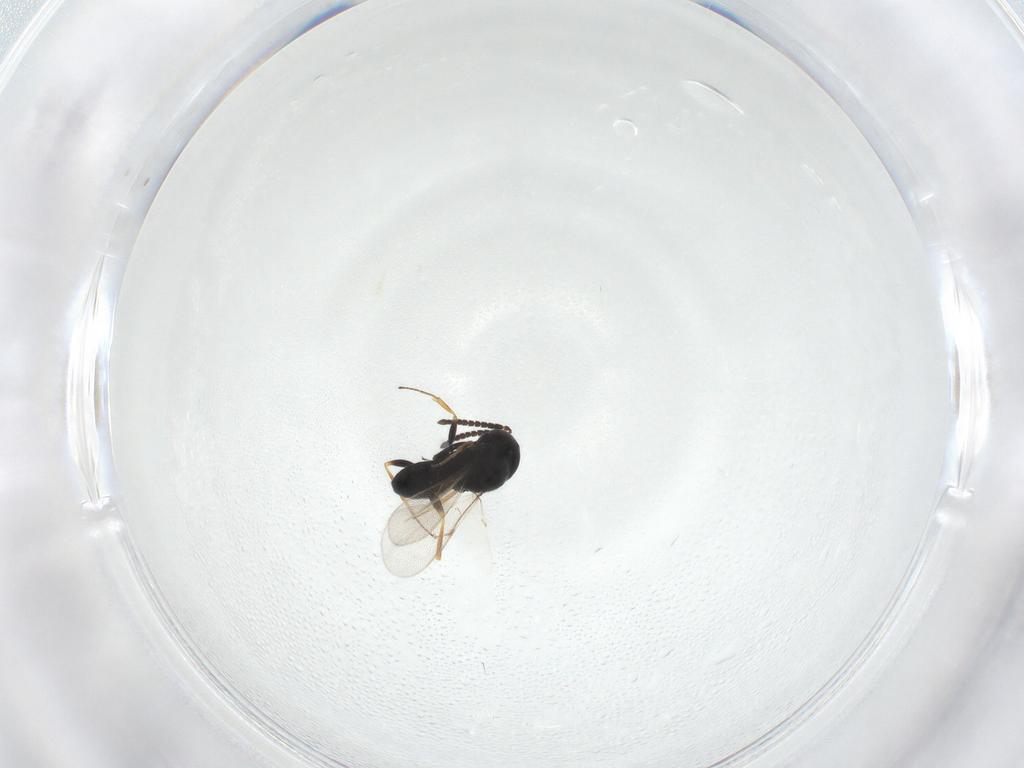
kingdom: Animalia
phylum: Arthropoda
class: Insecta
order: Hymenoptera
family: Scelionidae
